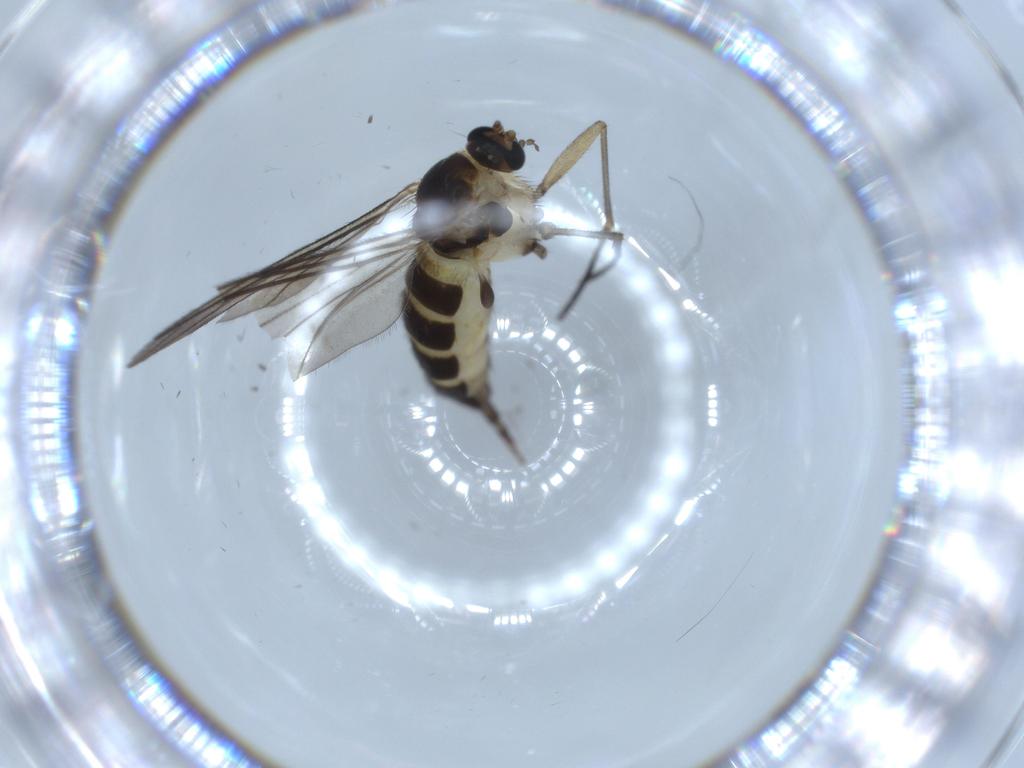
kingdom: Animalia
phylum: Arthropoda
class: Insecta
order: Diptera
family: Sciaridae
